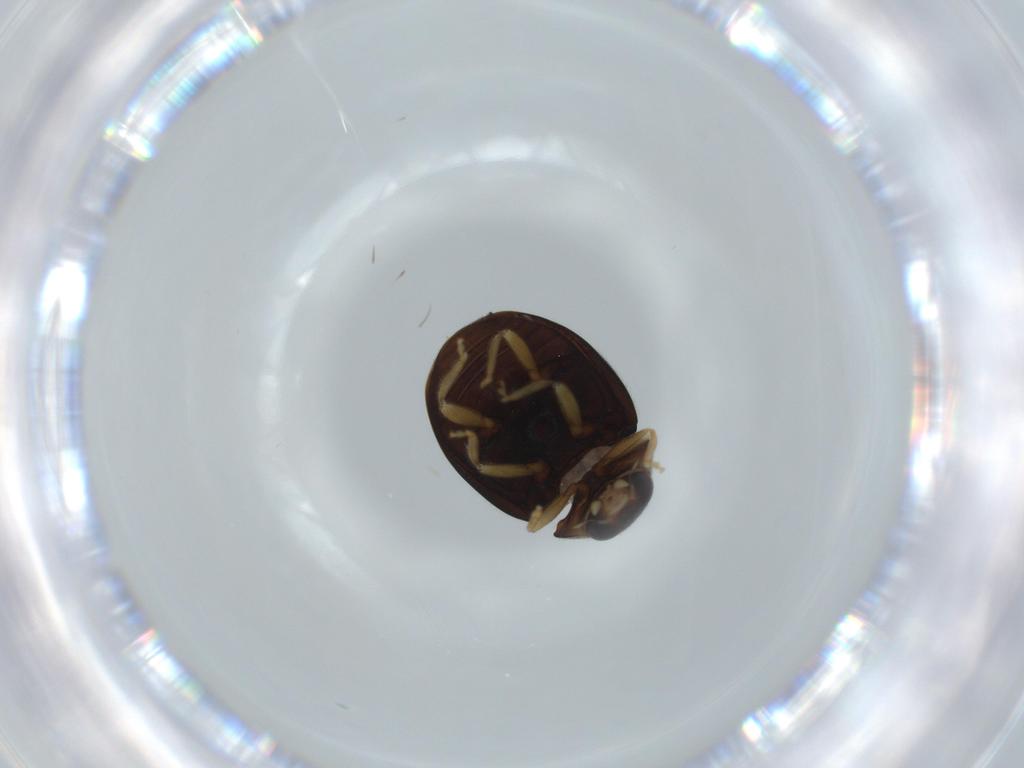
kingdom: Animalia
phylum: Arthropoda
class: Insecta
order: Coleoptera
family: Coccinellidae
